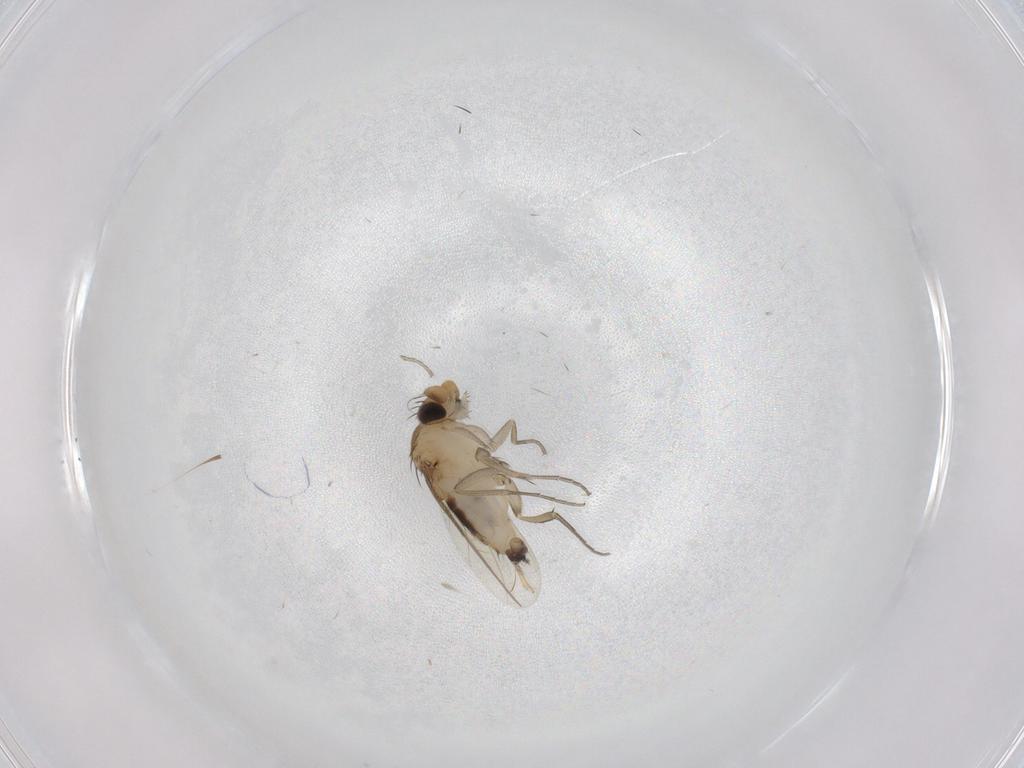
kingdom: Animalia
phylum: Arthropoda
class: Insecta
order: Diptera
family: Phoridae
